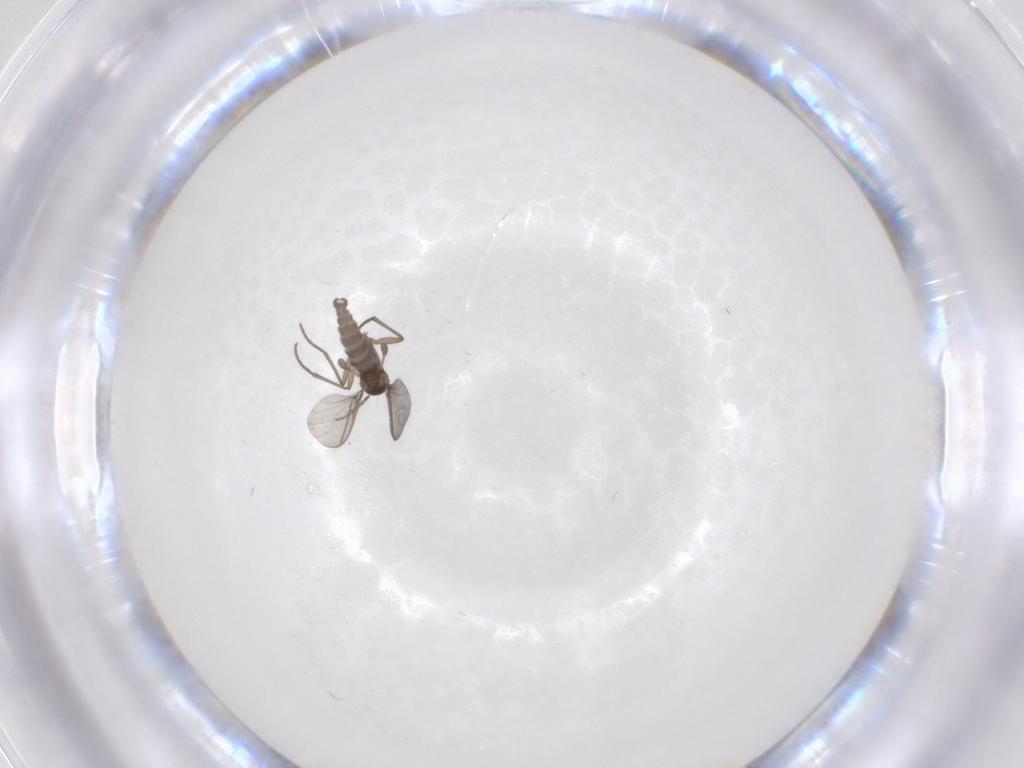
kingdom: Animalia
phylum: Arthropoda
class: Insecta
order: Diptera
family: Sciaridae
